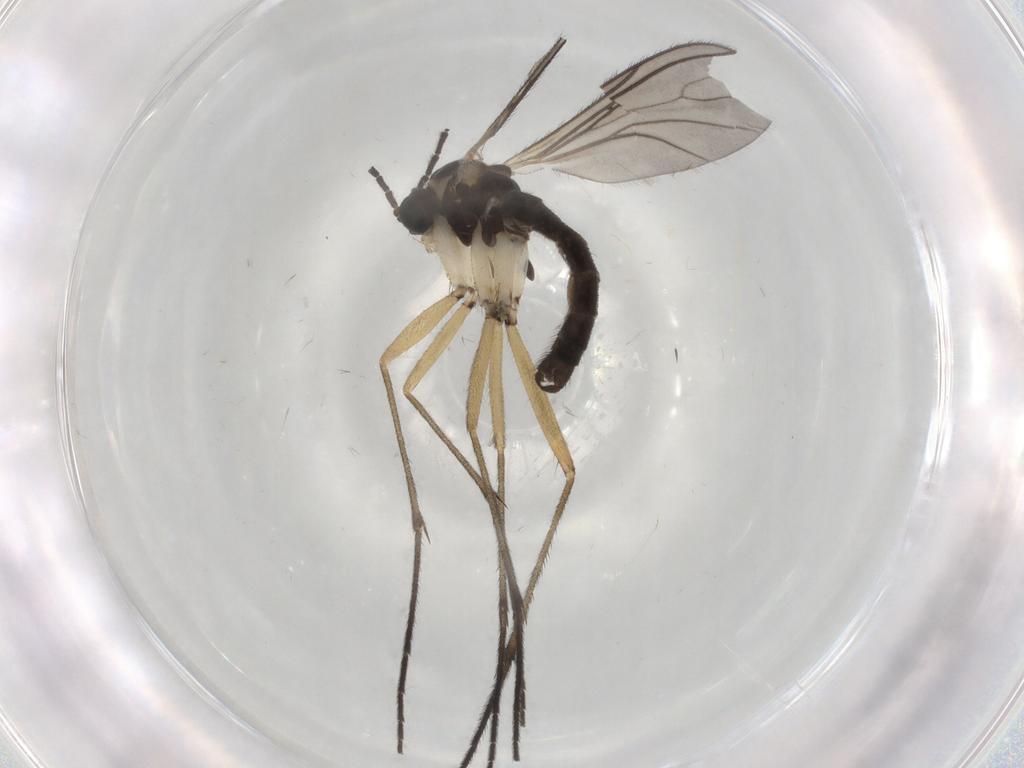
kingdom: Animalia
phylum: Arthropoda
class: Insecta
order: Diptera
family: Sciaridae
